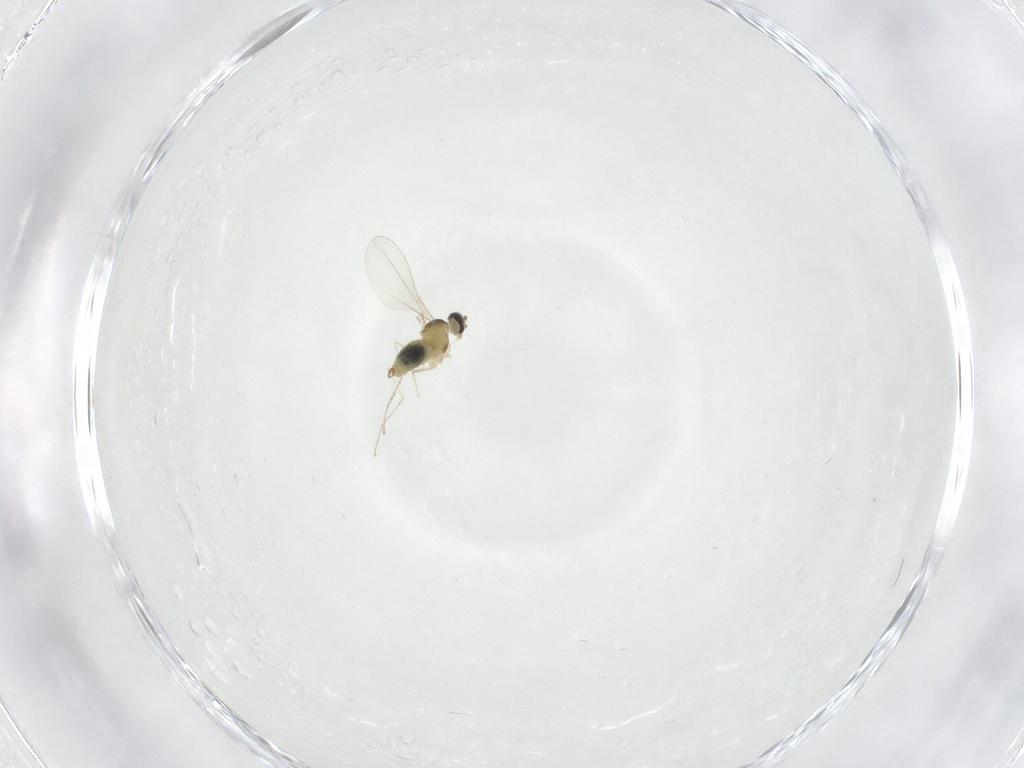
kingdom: Animalia
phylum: Arthropoda
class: Insecta
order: Diptera
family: Cecidomyiidae
